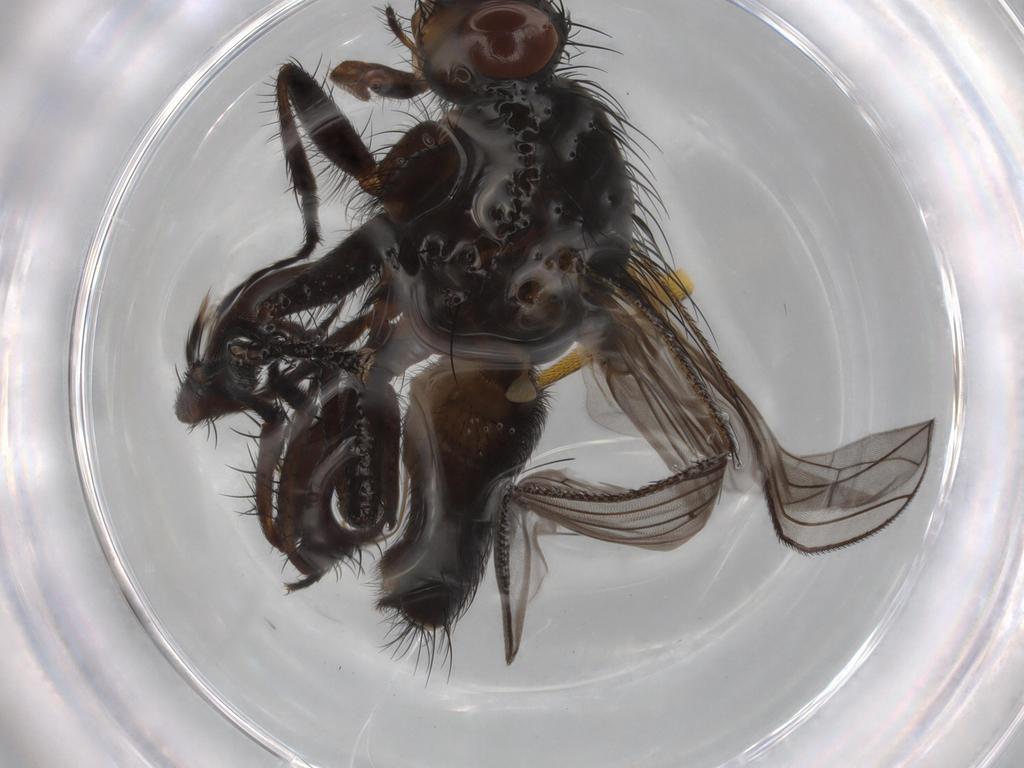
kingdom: Animalia
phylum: Arthropoda
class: Insecta
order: Diptera
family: Anthomyiidae
